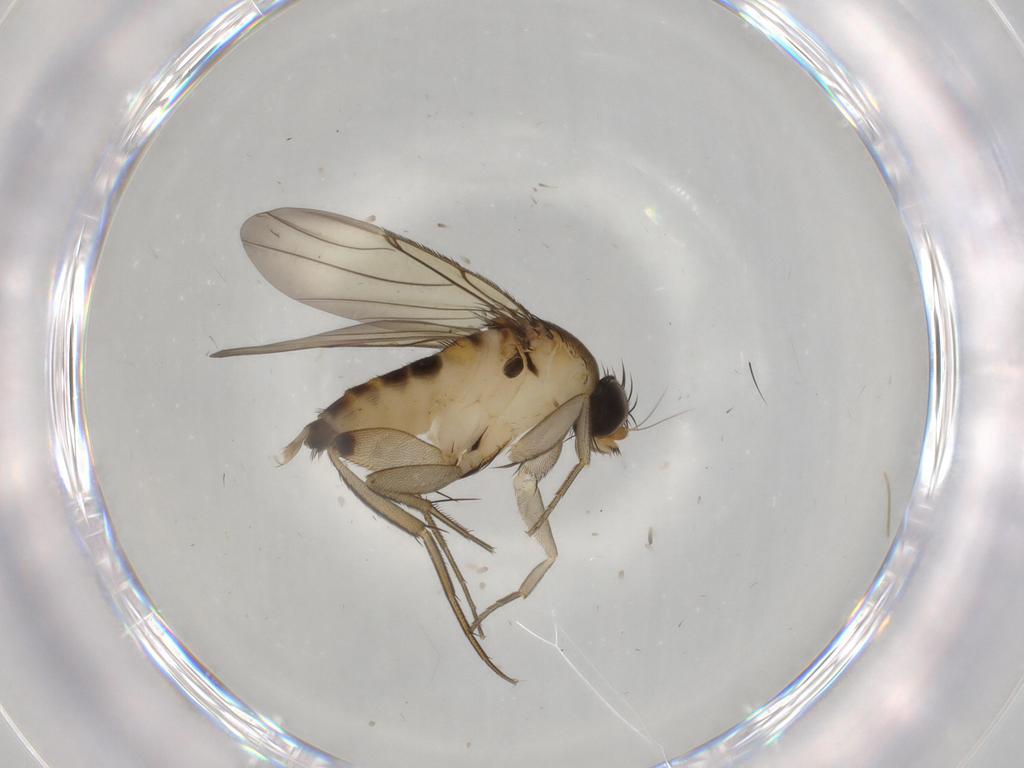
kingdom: Animalia
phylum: Arthropoda
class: Insecta
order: Diptera
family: Phoridae
